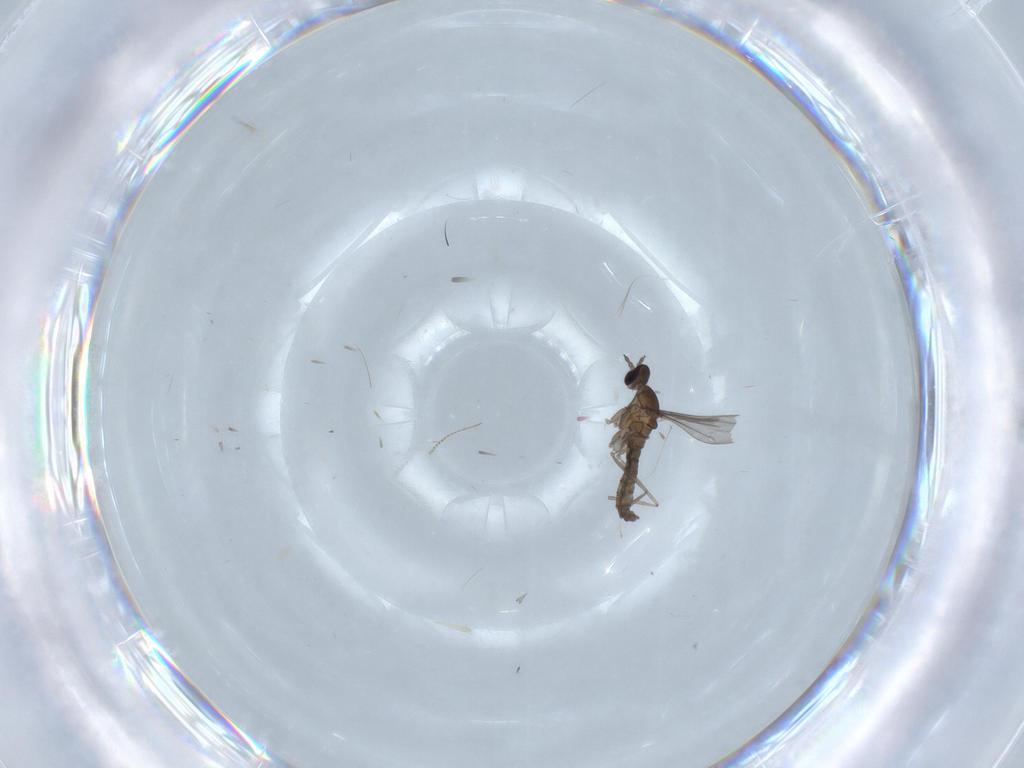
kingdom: Animalia
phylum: Arthropoda
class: Insecta
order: Diptera
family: Chironomidae
